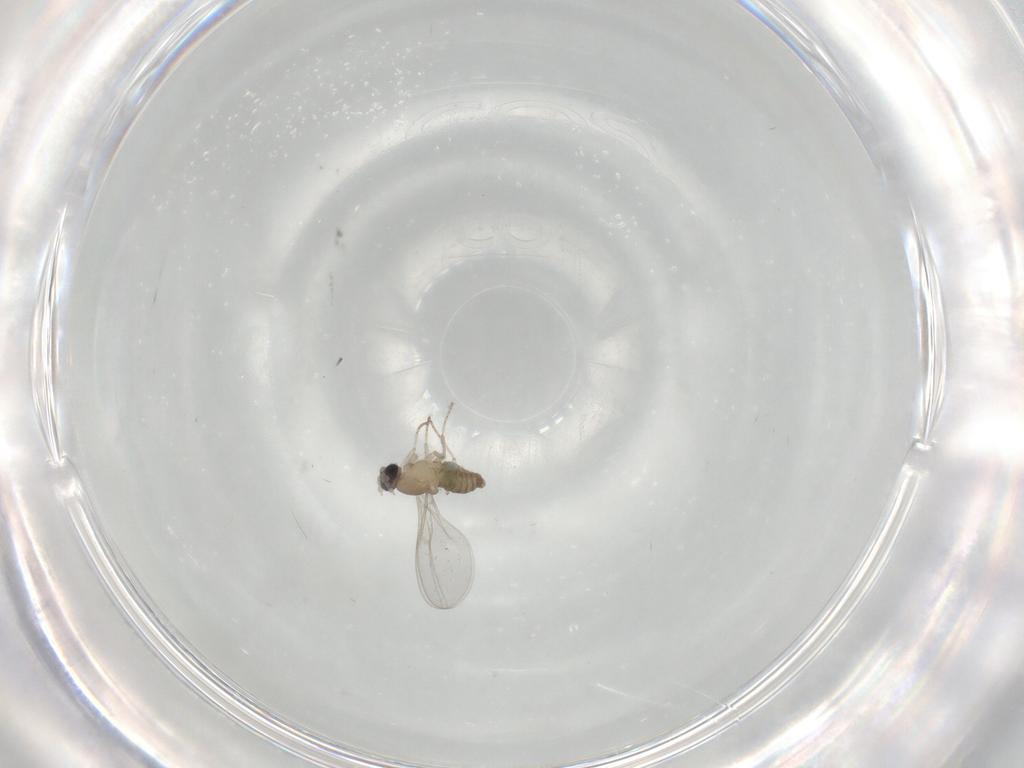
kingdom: Animalia
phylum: Arthropoda
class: Insecta
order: Diptera
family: Cecidomyiidae
